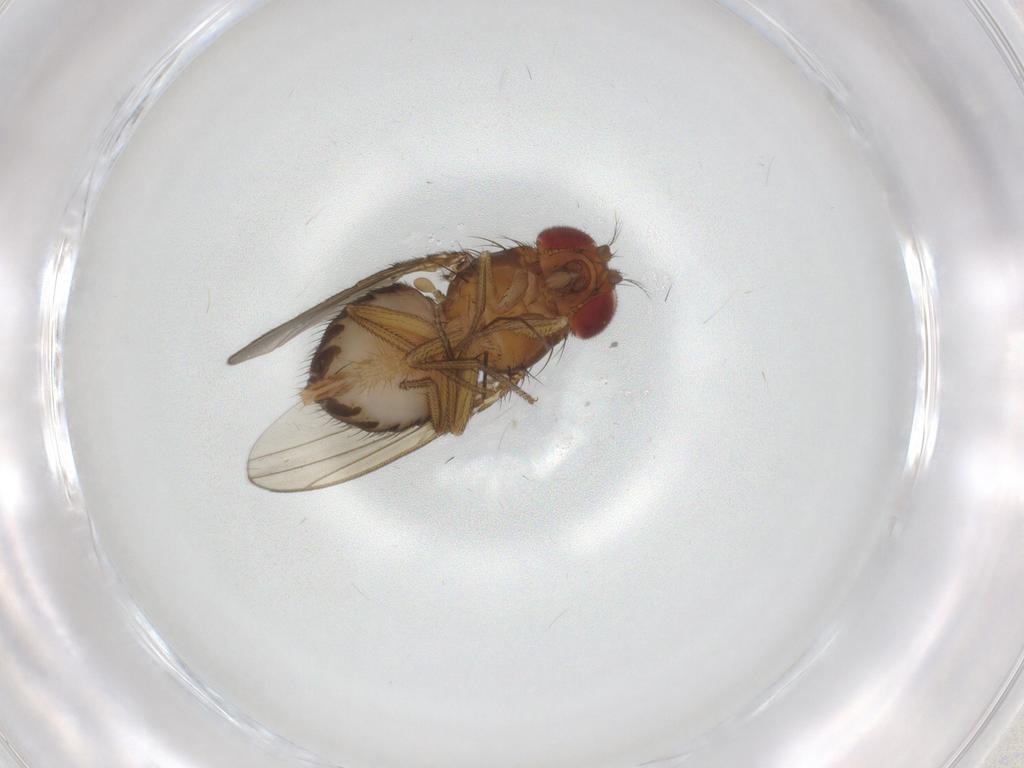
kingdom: Animalia
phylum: Arthropoda
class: Insecta
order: Diptera
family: Drosophilidae
